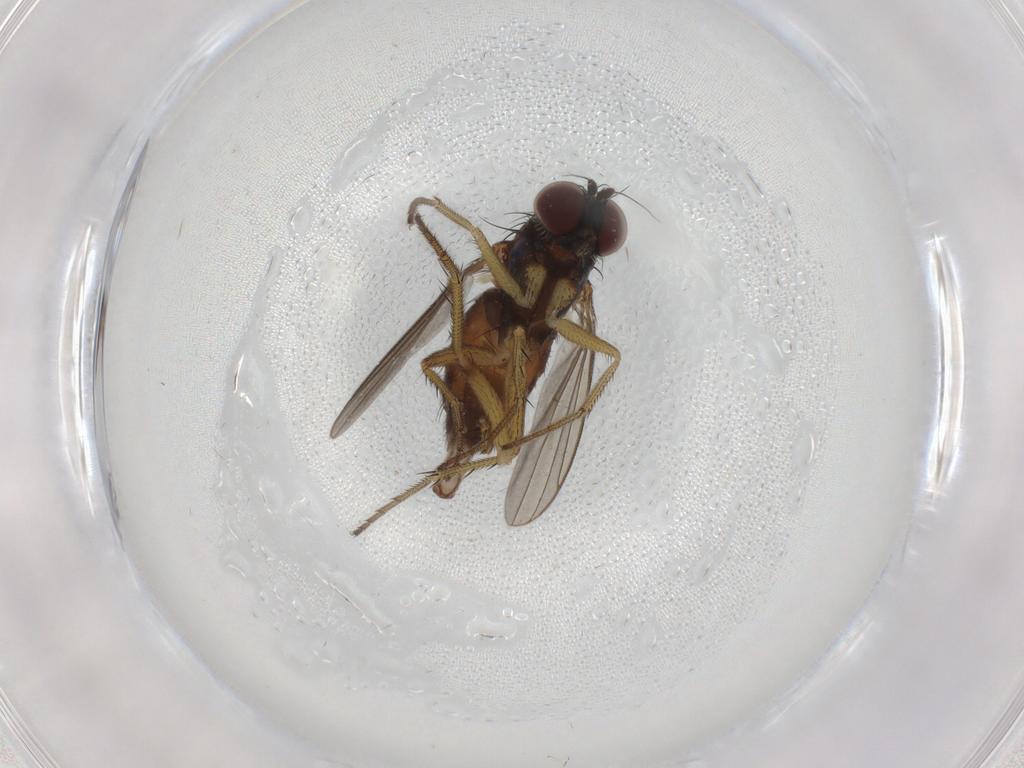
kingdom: Animalia
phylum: Arthropoda
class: Insecta
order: Diptera
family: Dolichopodidae
